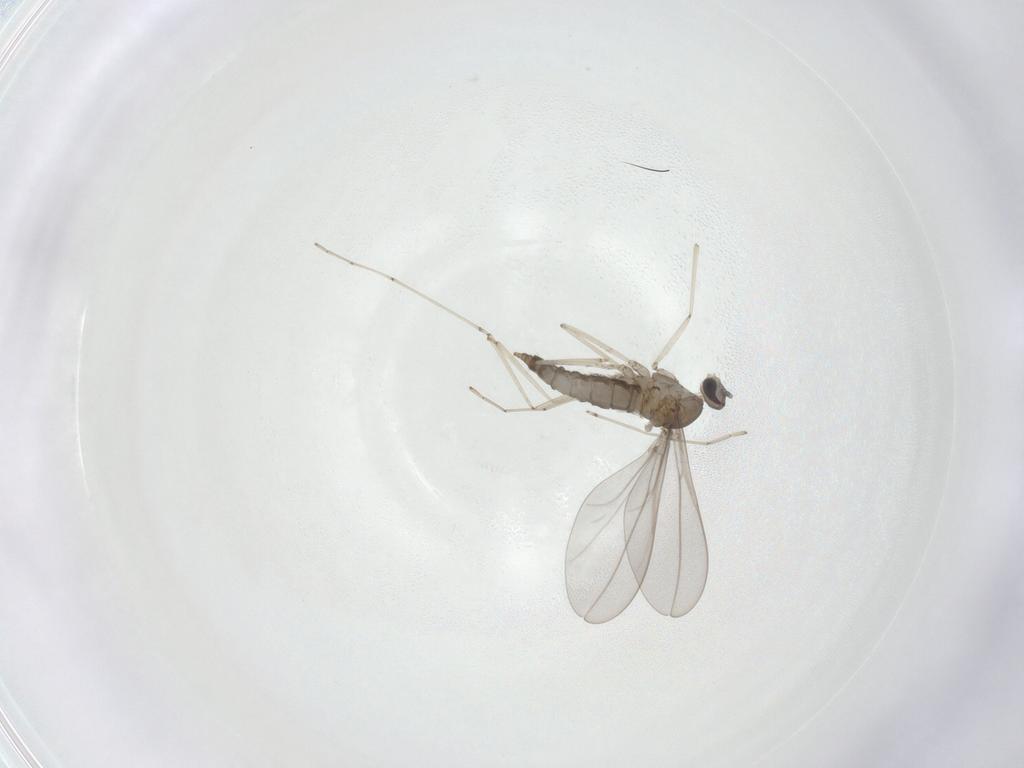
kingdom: Animalia
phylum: Arthropoda
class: Insecta
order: Diptera
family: Cecidomyiidae
